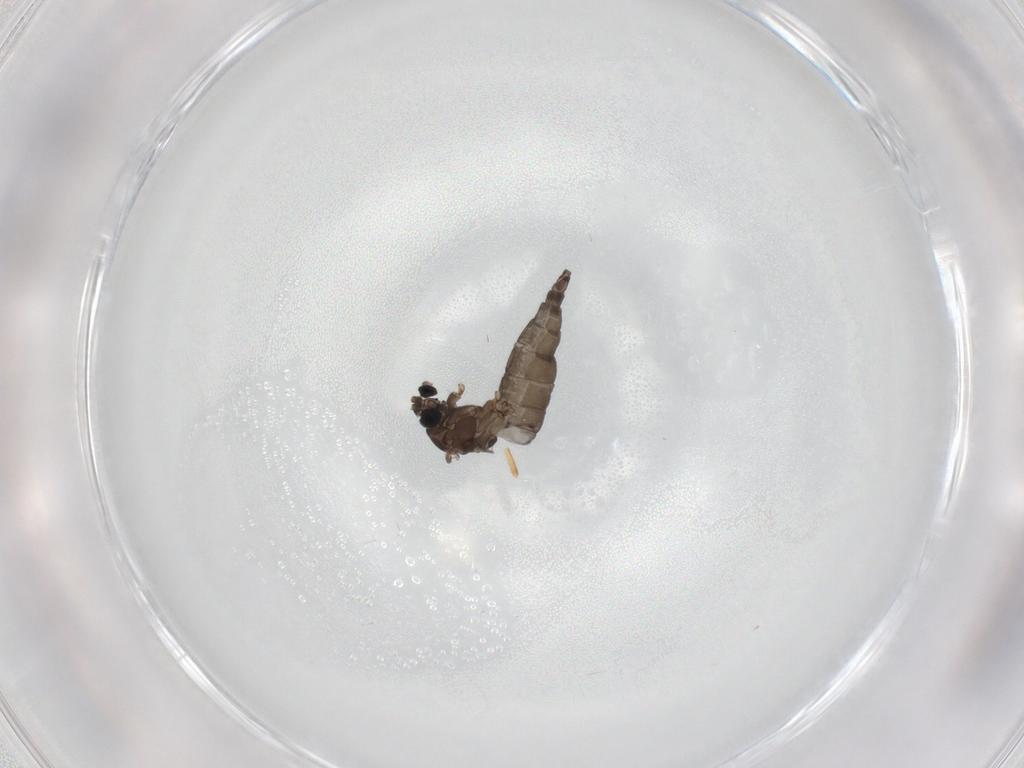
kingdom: Animalia
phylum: Arthropoda
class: Insecta
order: Diptera
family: Sciaridae
